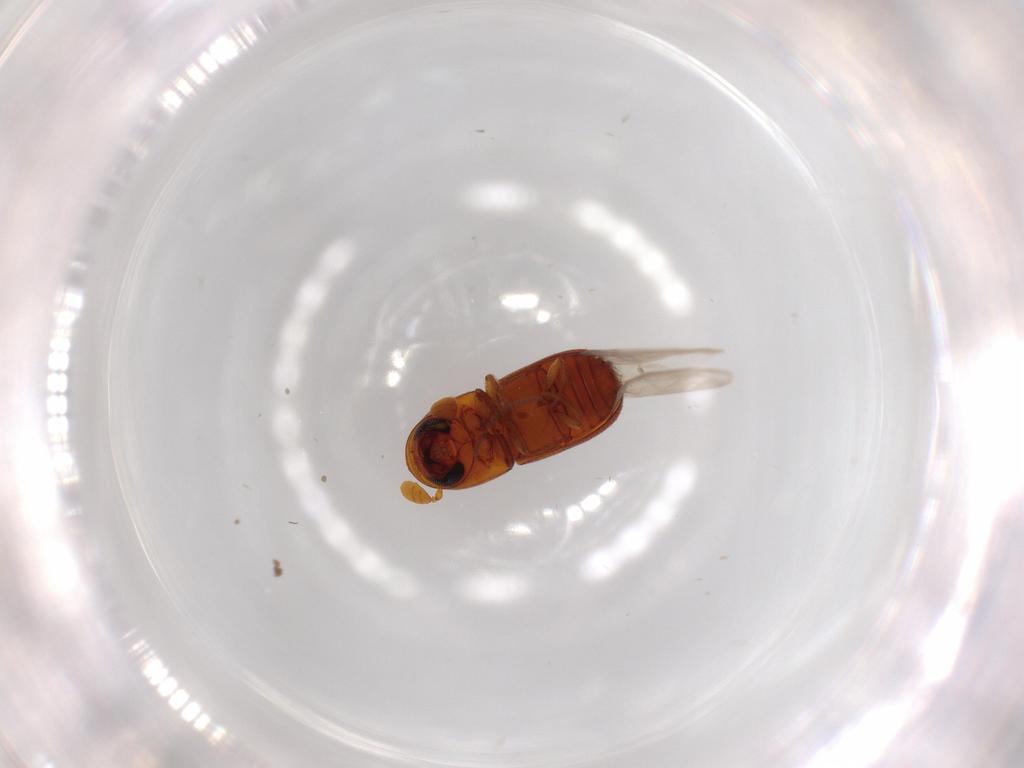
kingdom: Animalia
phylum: Arthropoda
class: Insecta
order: Coleoptera
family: Curculionidae
